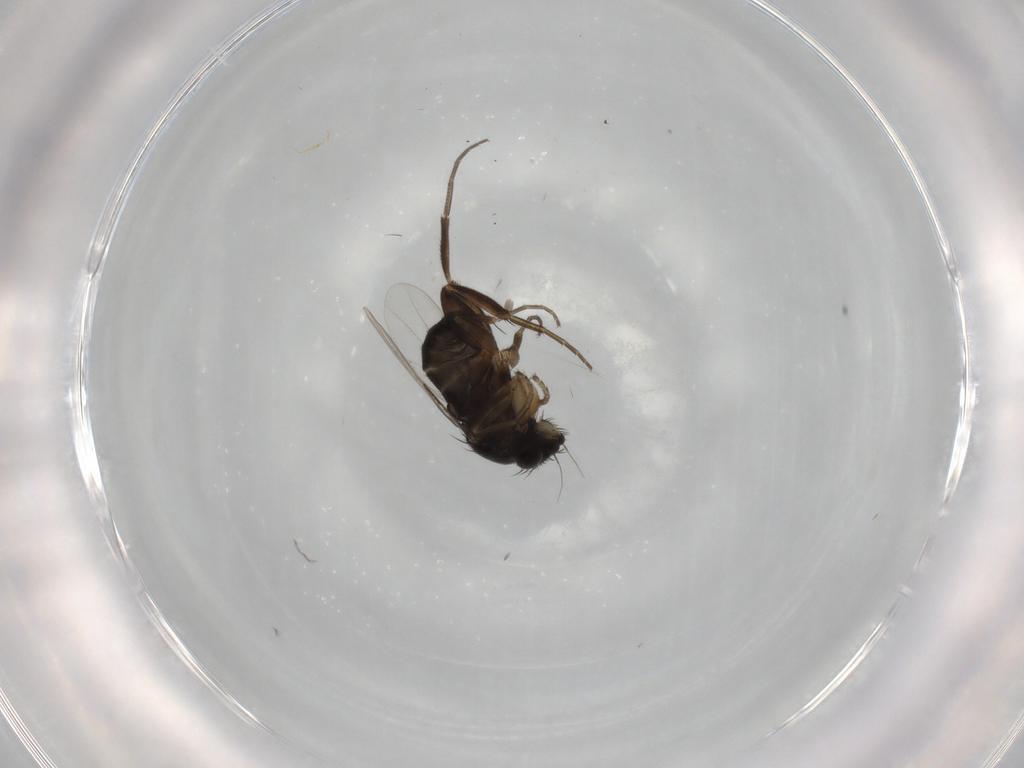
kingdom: Animalia
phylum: Arthropoda
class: Insecta
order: Diptera
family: Phoridae
